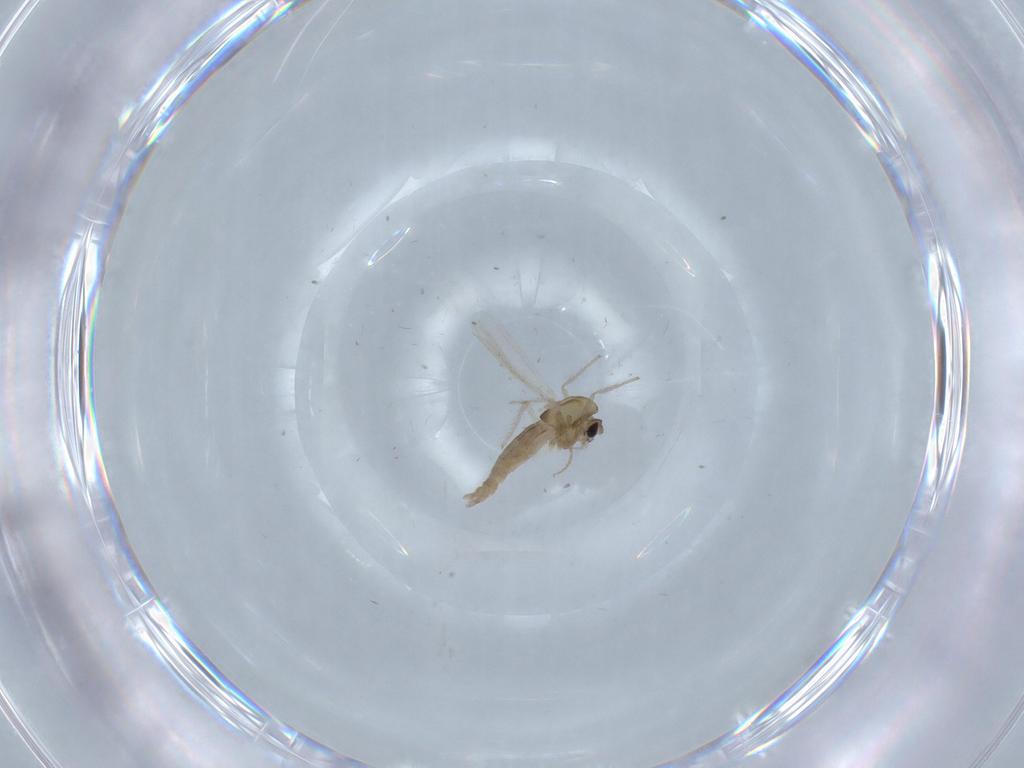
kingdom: Animalia
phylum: Arthropoda
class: Insecta
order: Diptera
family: Chironomidae
